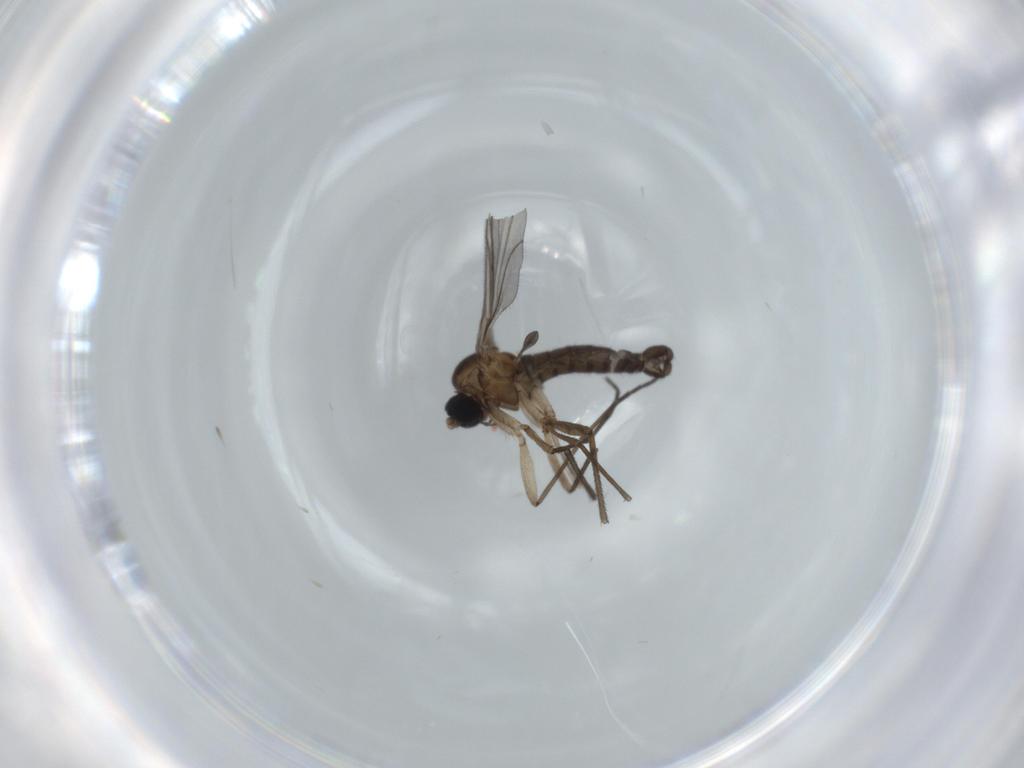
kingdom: Animalia
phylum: Arthropoda
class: Insecta
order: Diptera
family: Sciaridae
